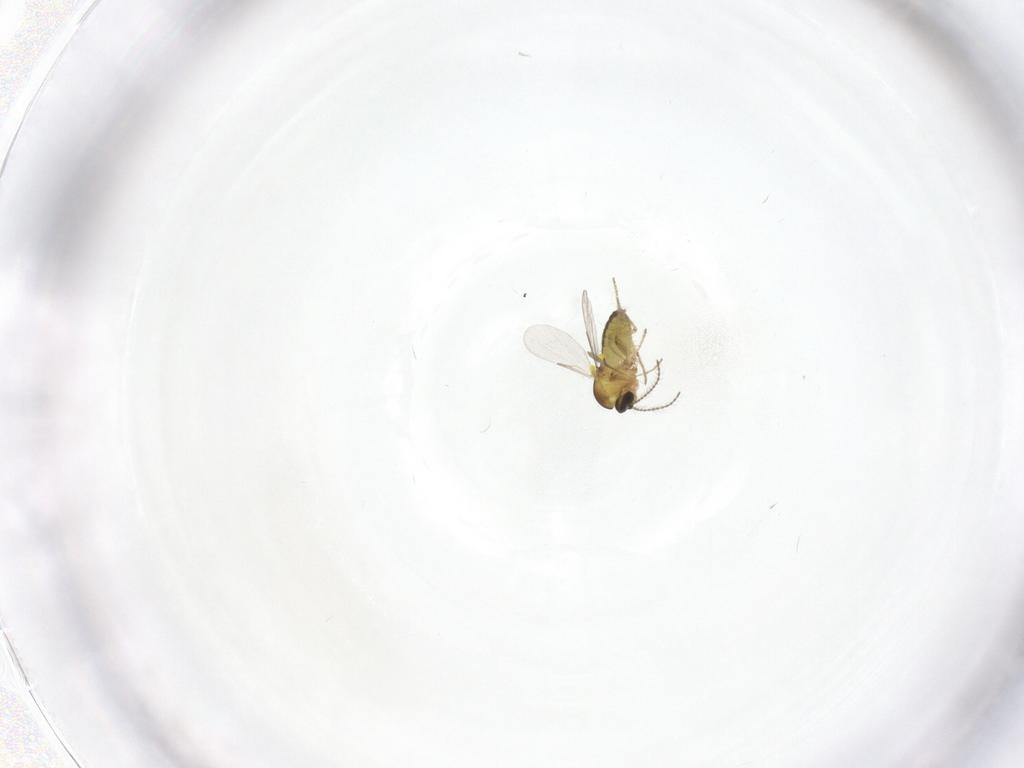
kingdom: Animalia
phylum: Arthropoda
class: Insecta
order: Diptera
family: Ceratopogonidae
